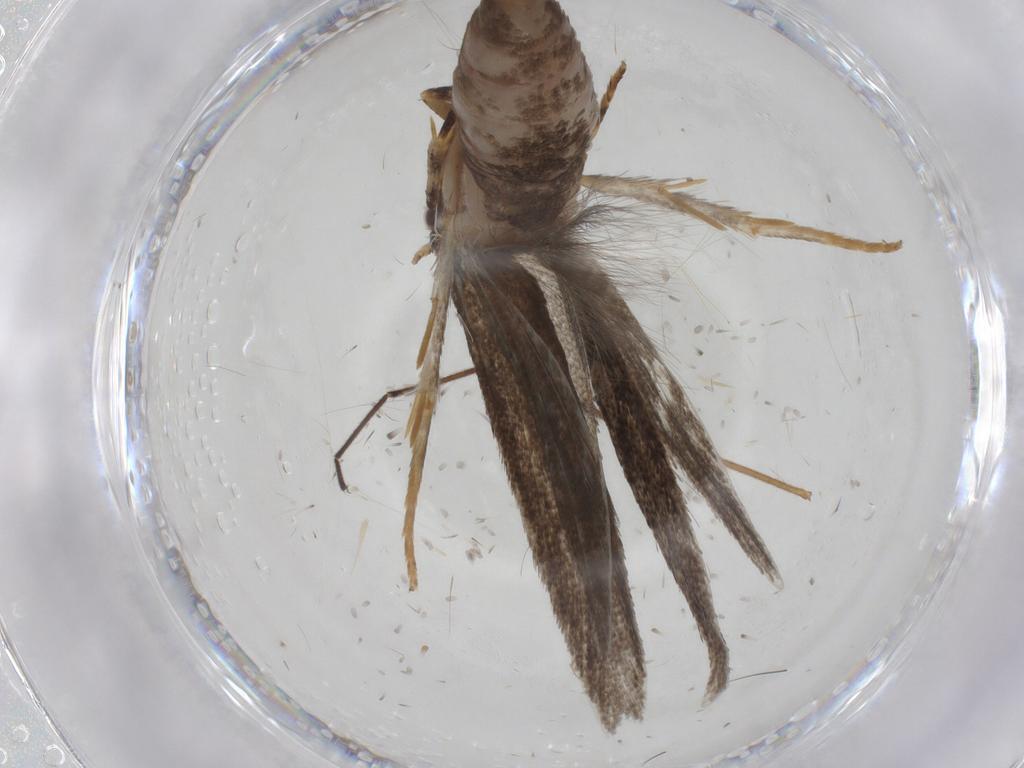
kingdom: Animalia
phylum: Arthropoda
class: Insecta
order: Lepidoptera
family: Oecophoridae
